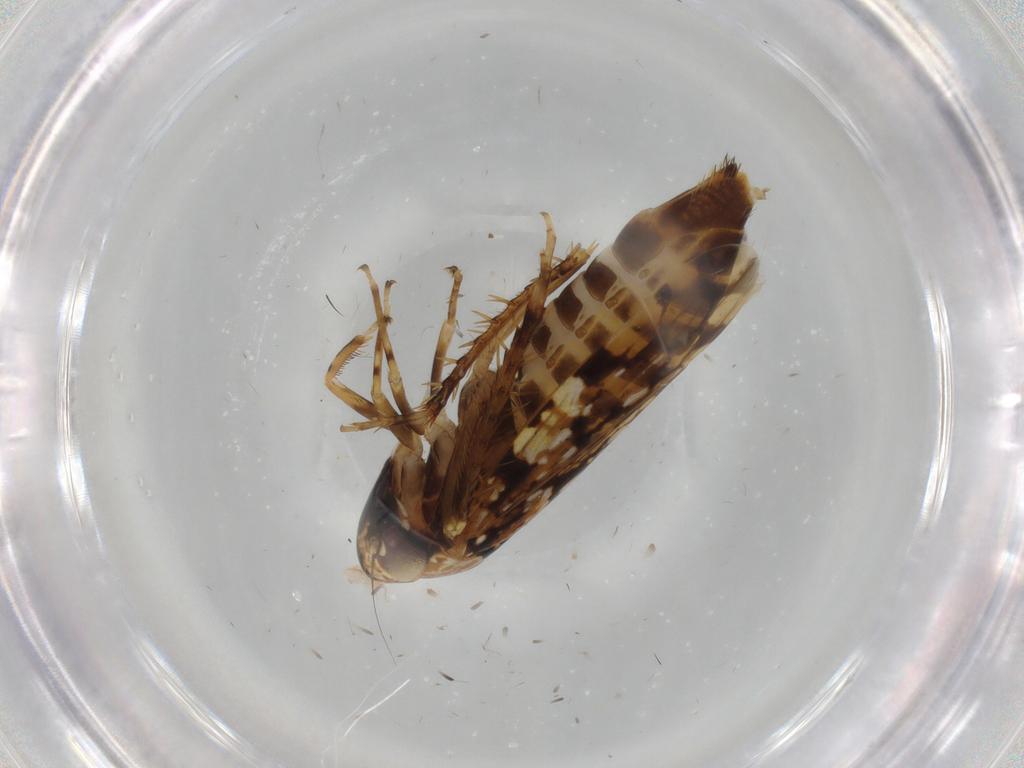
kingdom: Animalia
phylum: Arthropoda
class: Insecta
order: Hemiptera
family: Cicadellidae
